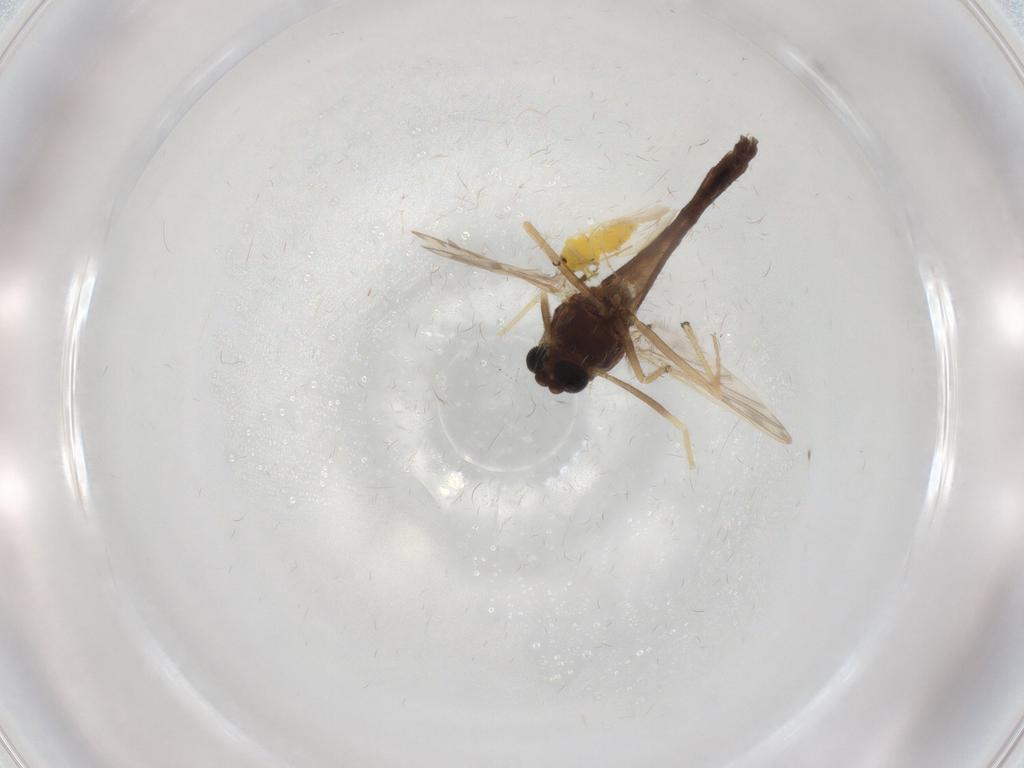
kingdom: Animalia
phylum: Arthropoda
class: Insecta
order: Diptera
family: Chironomidae
